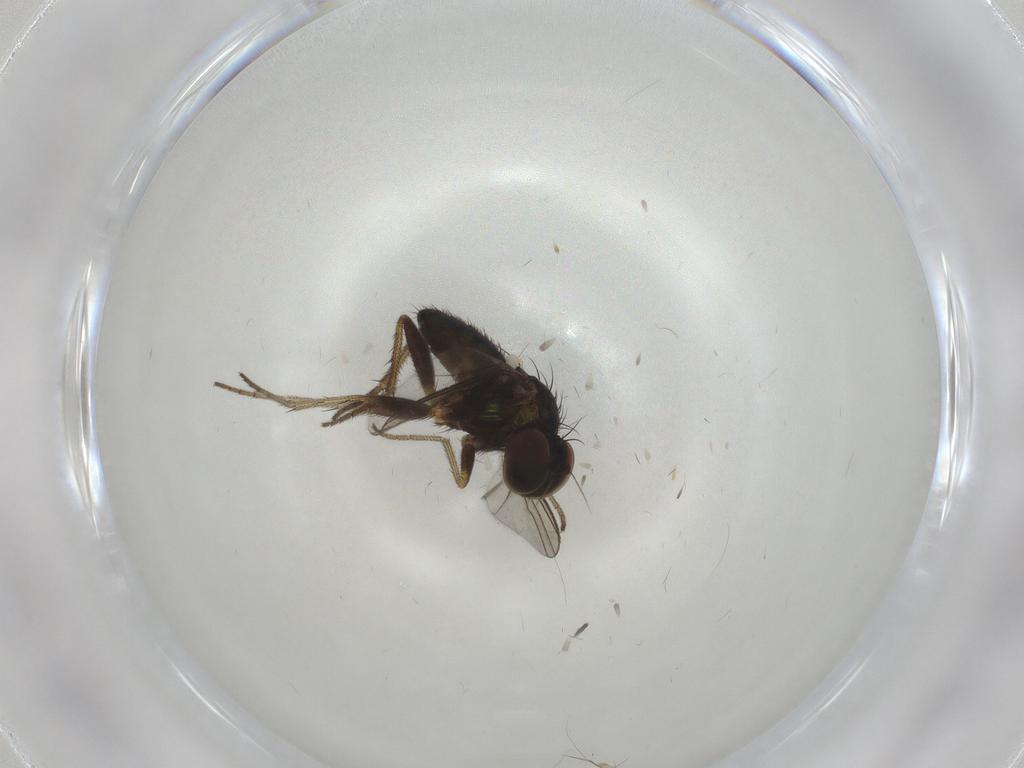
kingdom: Animalia
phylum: Arthropoda
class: Insecta
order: Diptera
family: Dolichopodidae
